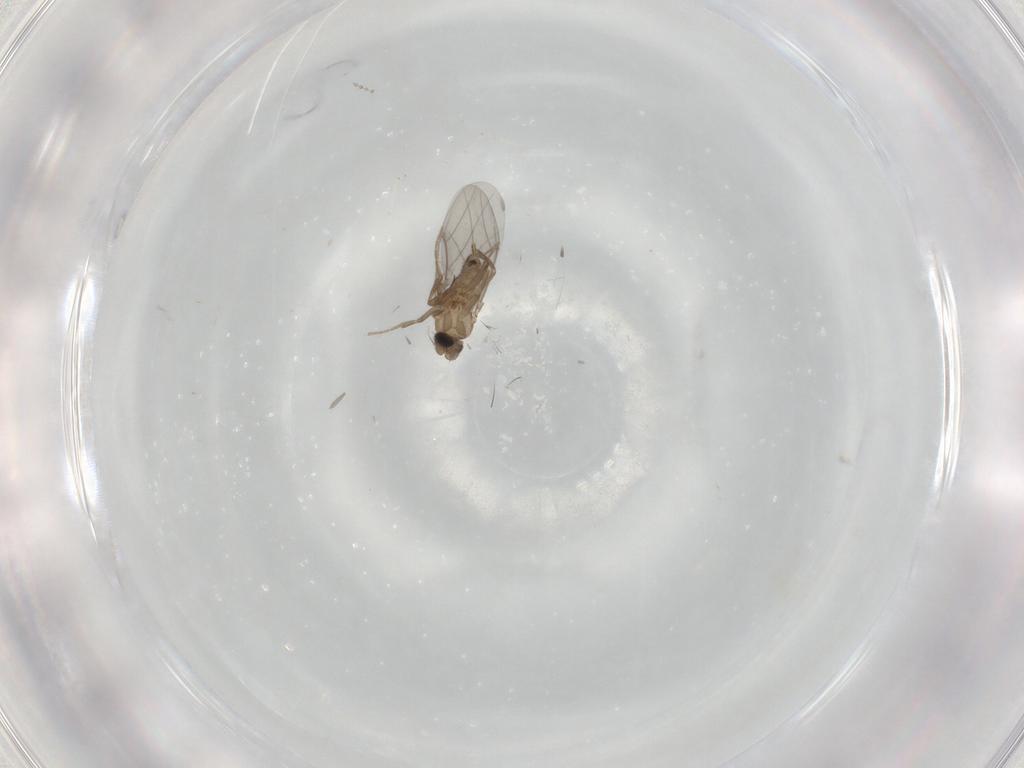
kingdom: Animalia
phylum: Arthropoda
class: Insecta
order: Diptera
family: Cecidomyiidae
